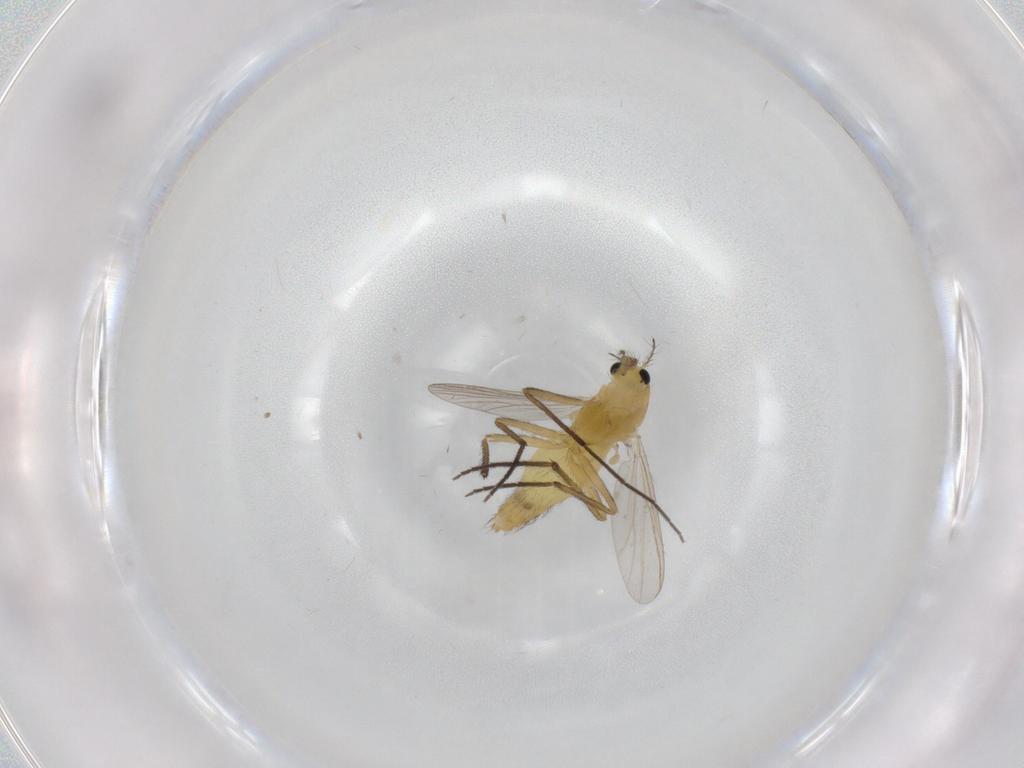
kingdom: Animalia
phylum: Arthropoda
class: Insecta
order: Diptera
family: Chironomidae
